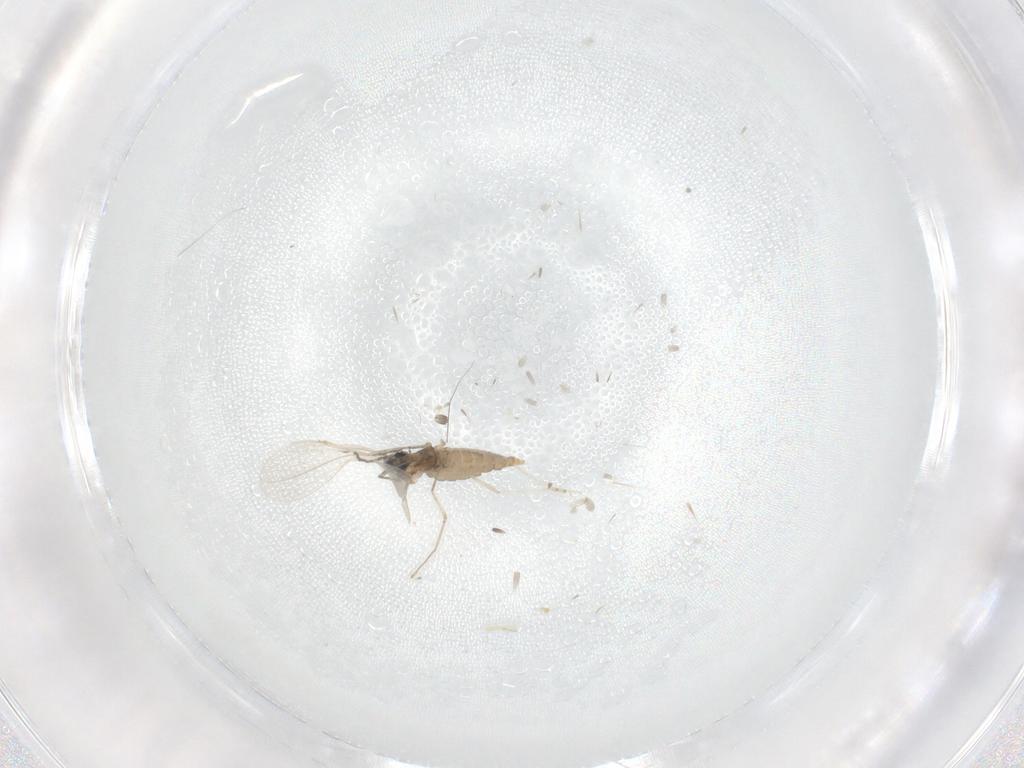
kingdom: Animalia
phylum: Arthropoda
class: Insecta
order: Diptera
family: Psychodidae
